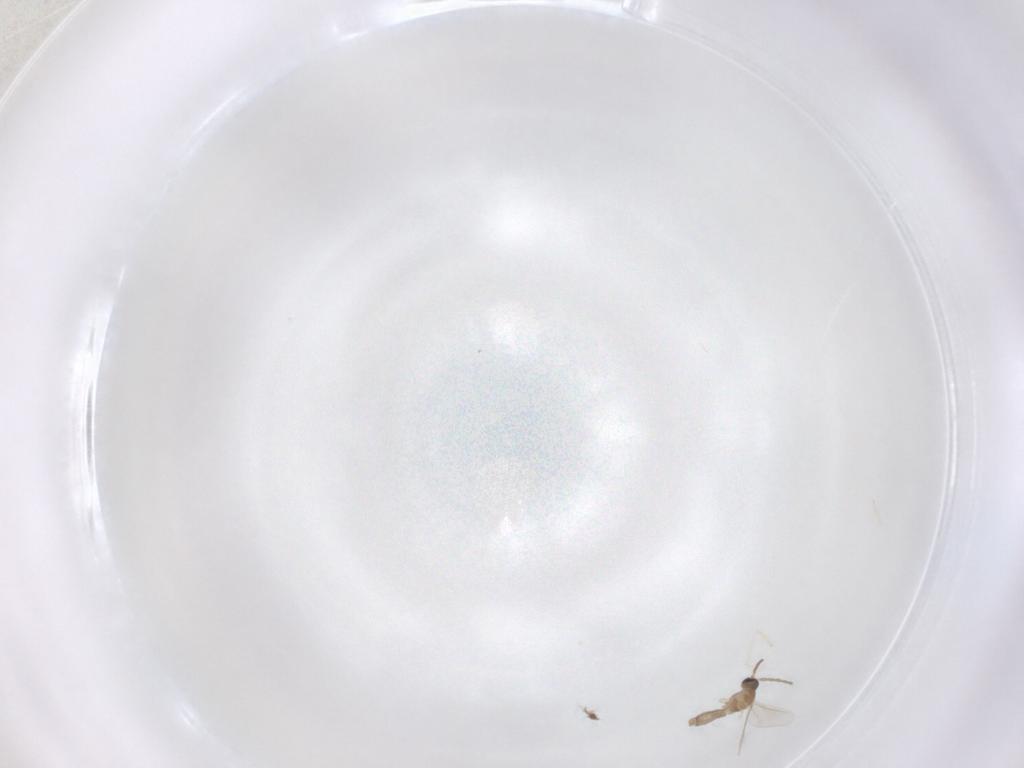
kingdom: Animalia
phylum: Arthropoda
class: Insecta
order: Diptera
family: Cecidomyiidae
